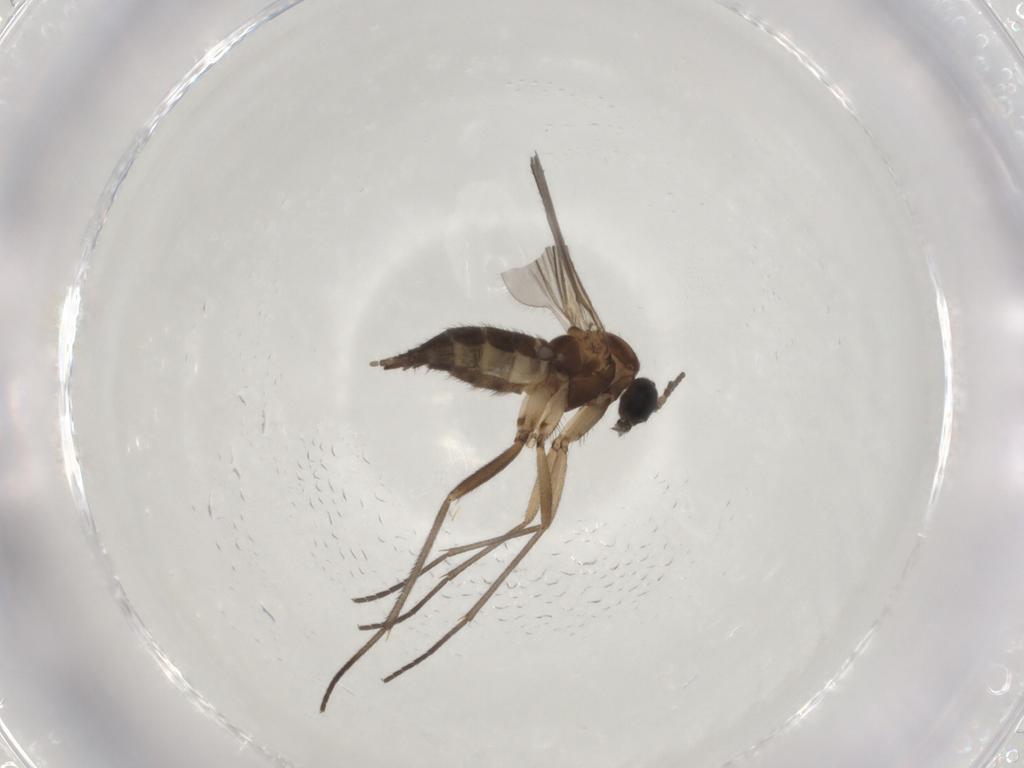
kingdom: Animalia
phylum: Arthropoda
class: Insecta
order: Diptera
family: Sciaridae
